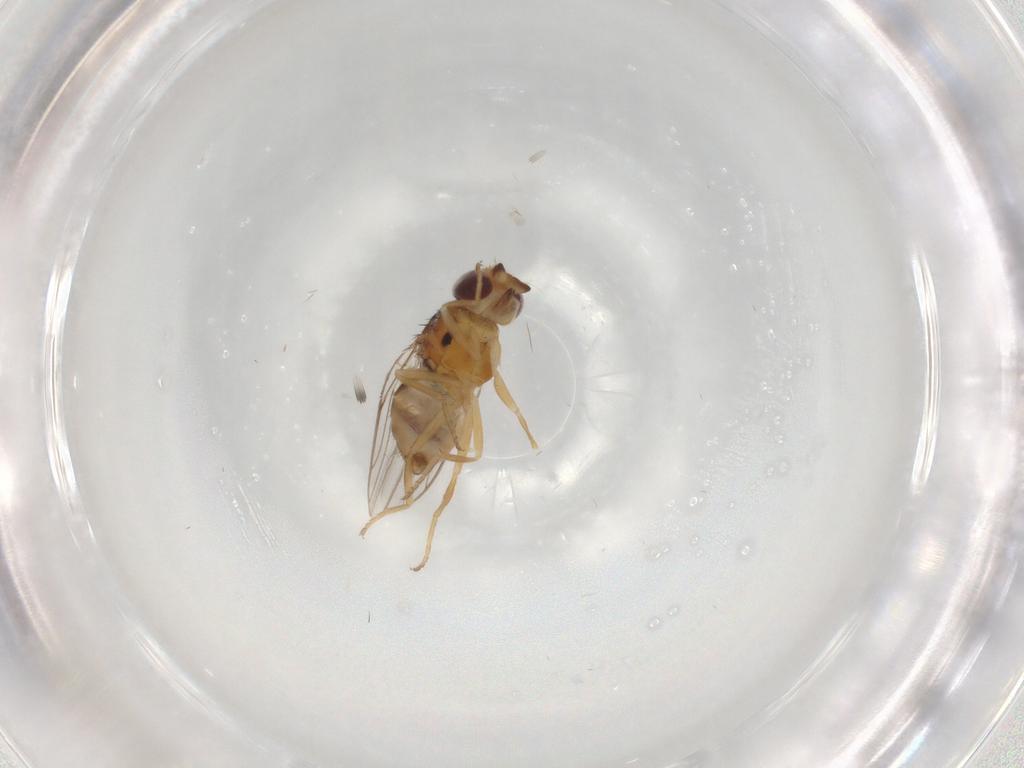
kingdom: Animalia
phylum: Arthropoda
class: Insecta
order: Diptera
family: Chloropidae
